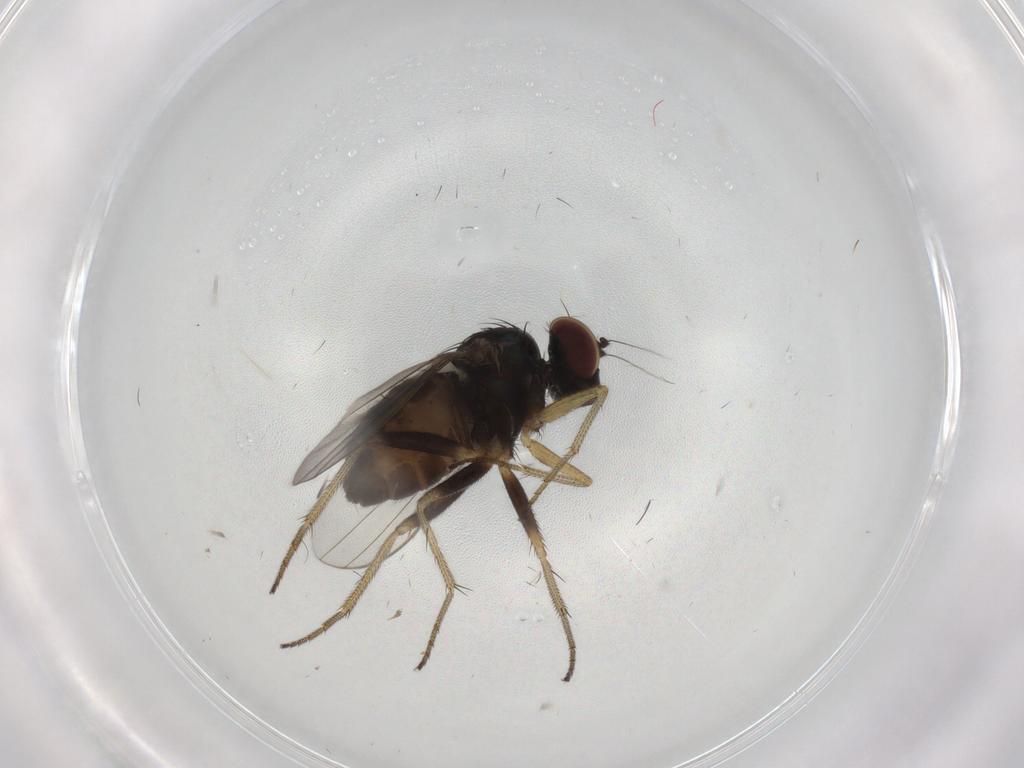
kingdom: Animalia
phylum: Arthropoda
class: Insecta
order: Diptera
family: Dolichopodidae
